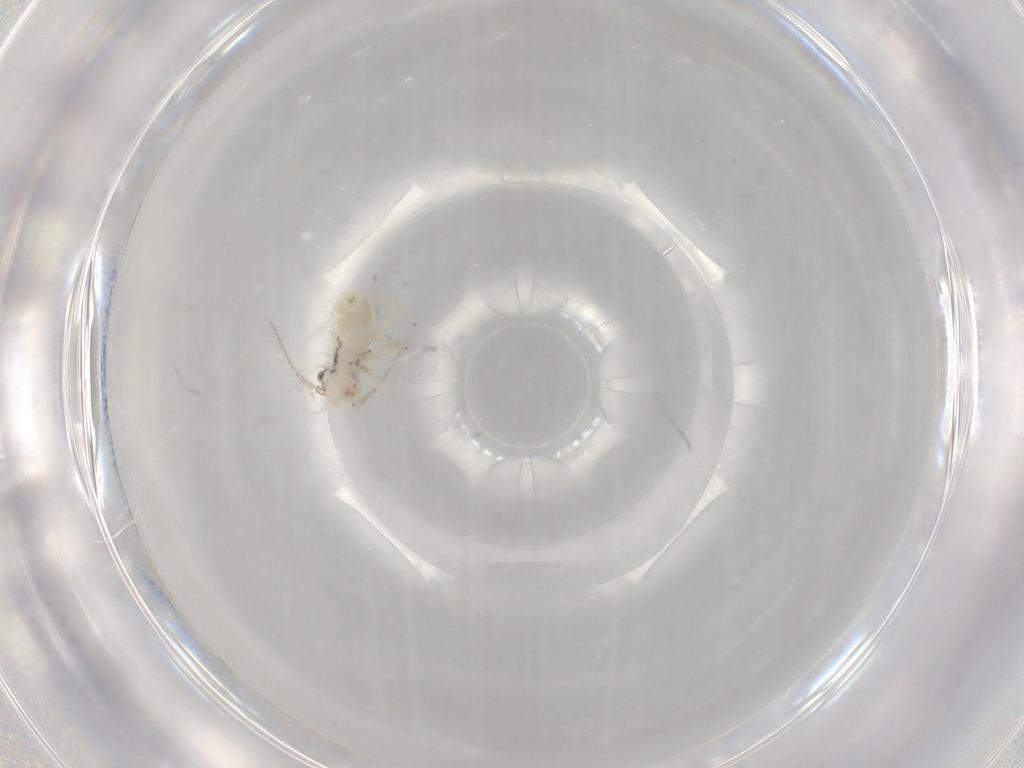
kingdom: Animalia
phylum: Arthropoda
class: Insecta
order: Psocodea
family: Pseudocaeciliidae
